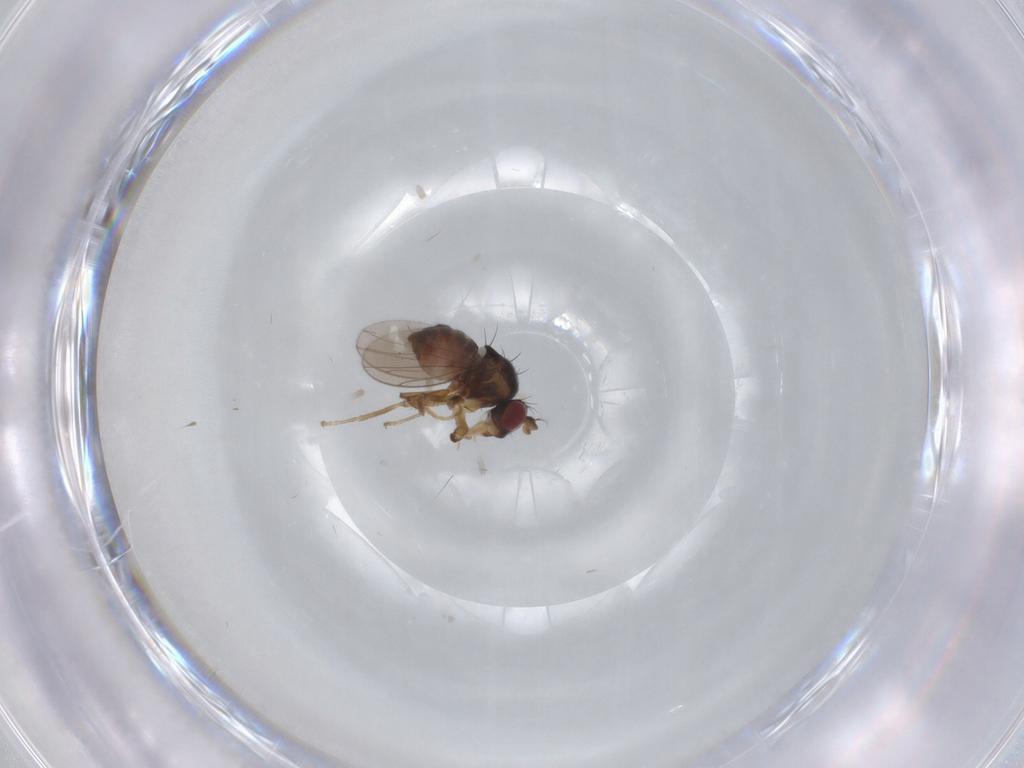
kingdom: Animalia
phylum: Arthropoda
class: Insecta
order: Diptera
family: Ephydridae
